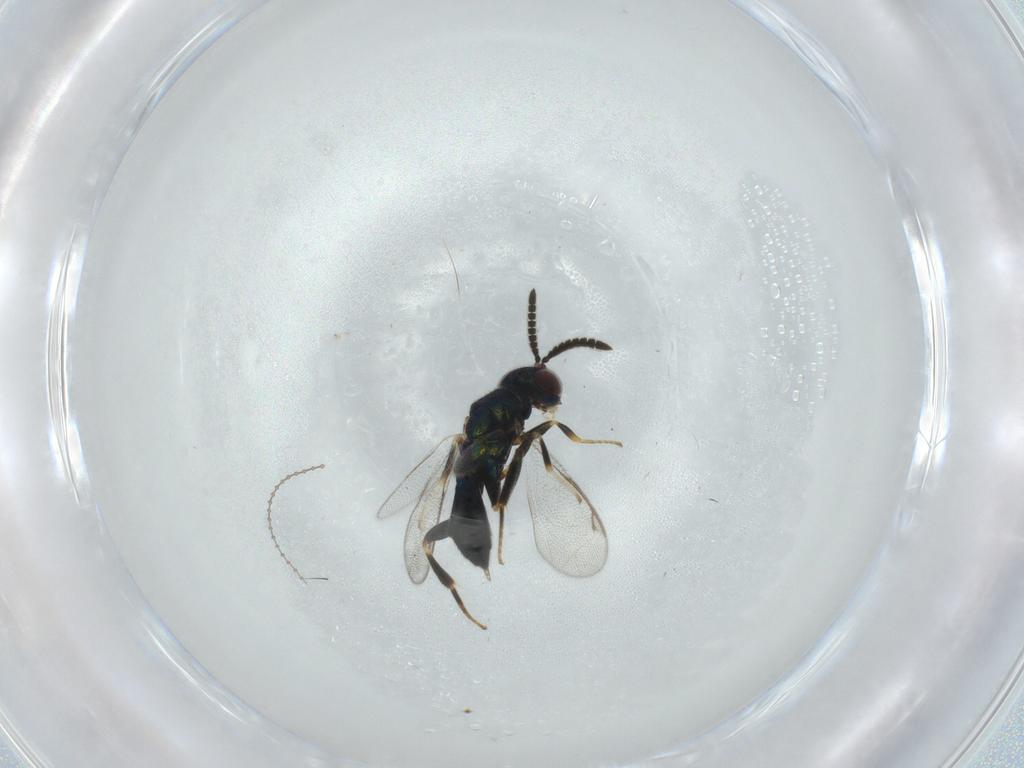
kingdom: Animalia
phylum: Arthropoda
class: Insecta
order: Hymenoptera
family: Cleonyminae
